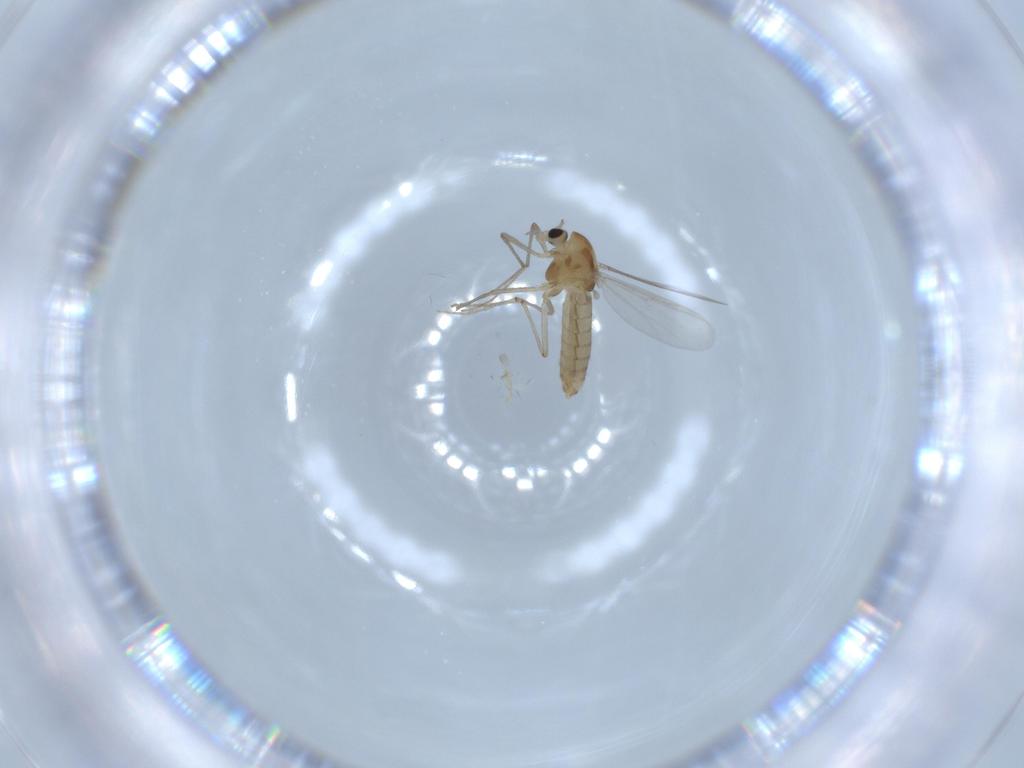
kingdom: Animalia
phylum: Arthropoda
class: Insecta
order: Diptera
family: Chironomidae
